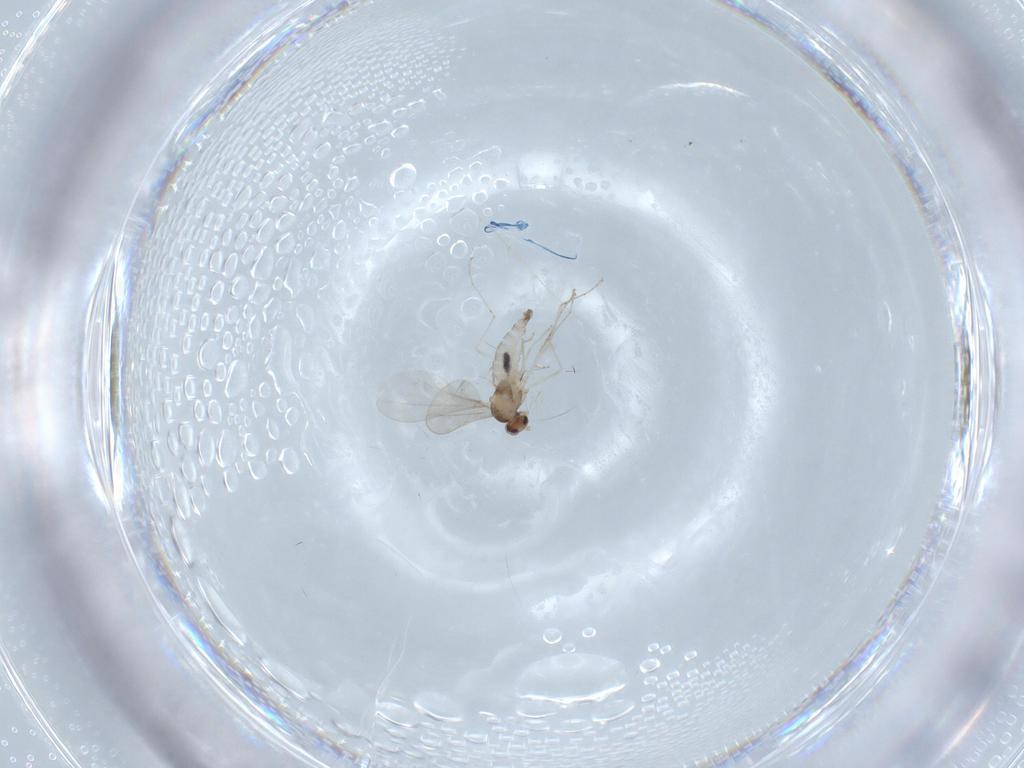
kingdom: Animalia
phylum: Arthropoda
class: Insecta
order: Diptera
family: Cecidomyiidae
